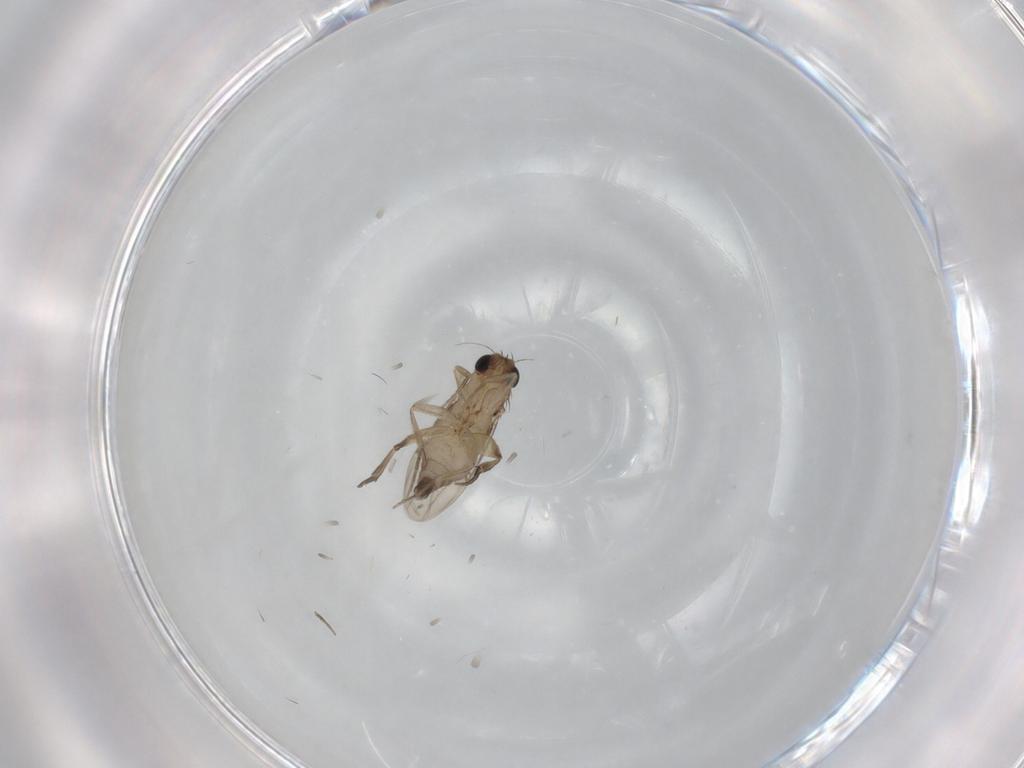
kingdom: Animalia
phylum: Arthropoda
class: Insecta
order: Diptera
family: Phoridae
